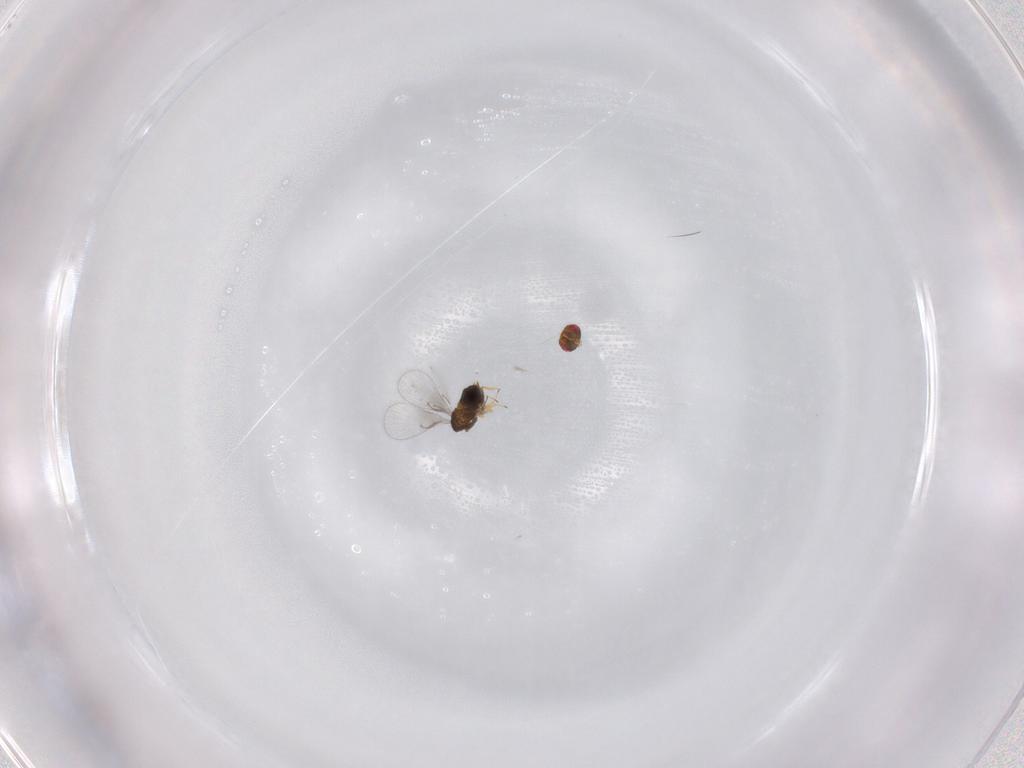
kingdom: Animalia
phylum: Arthropoda
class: Insecta
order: Hymenoptera
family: Trichogrammatidae
